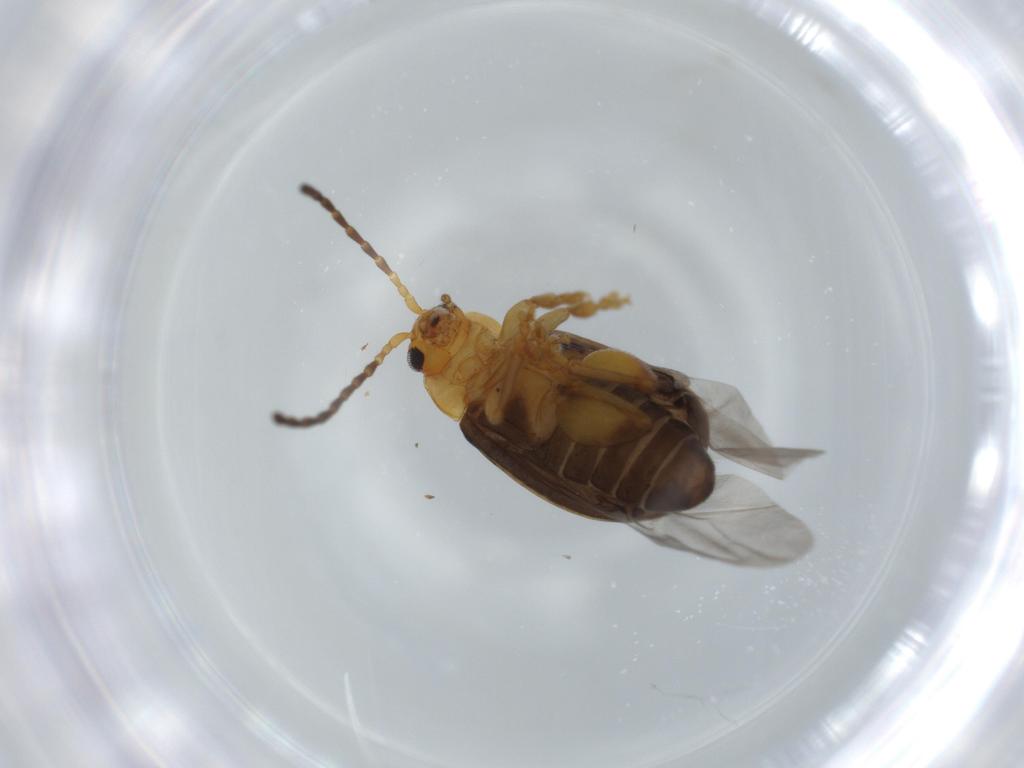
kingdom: Animalia
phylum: Arthropoda
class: Insecta
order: Coleoptera
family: Chrysomelidae
